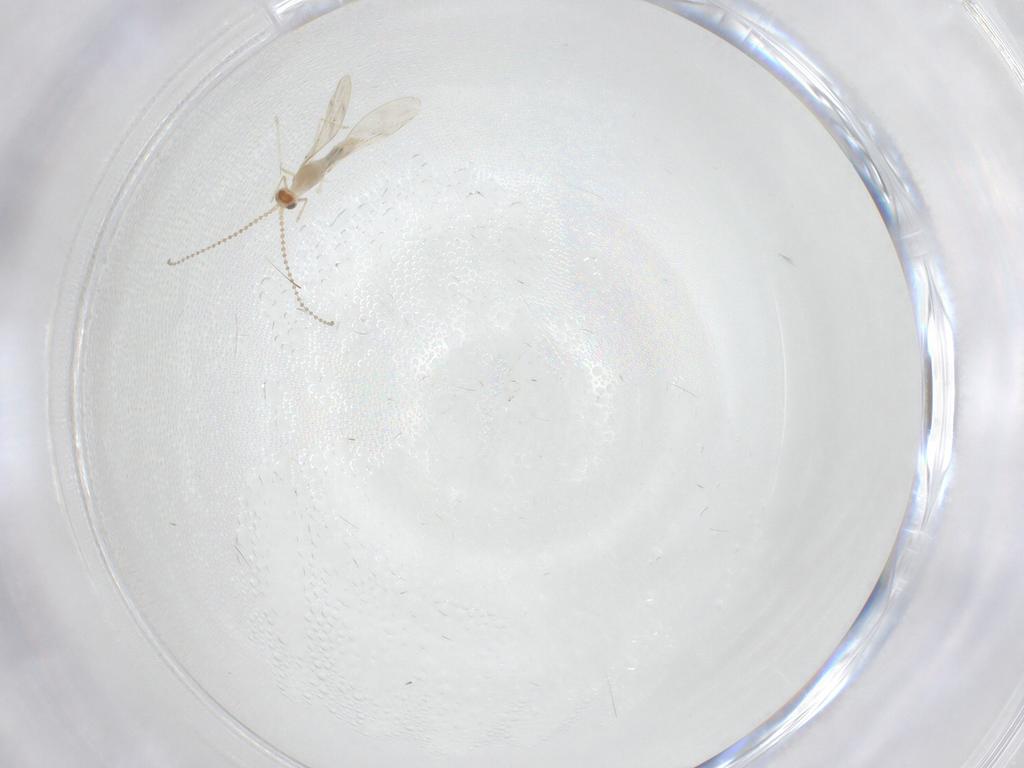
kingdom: Animalia
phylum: Arthropoda
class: Insecta
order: Diptera
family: Cecidomyiidae
